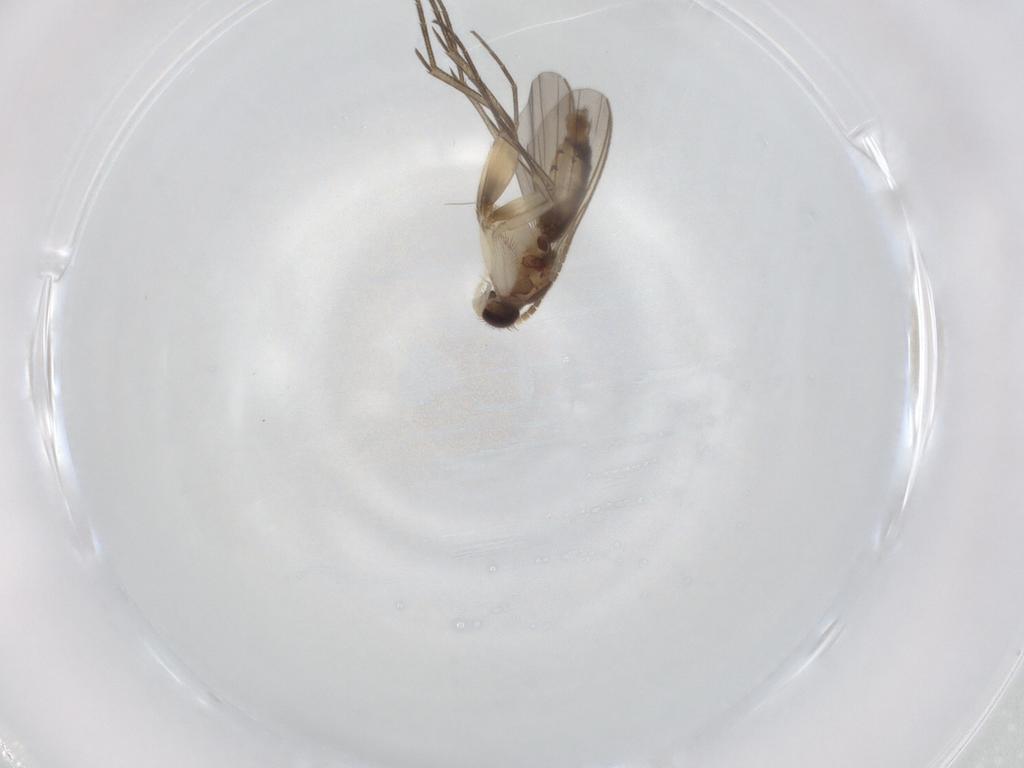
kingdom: Animalia
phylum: Arthropoda
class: Insecta
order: Diptera
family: Mycetophilidae
